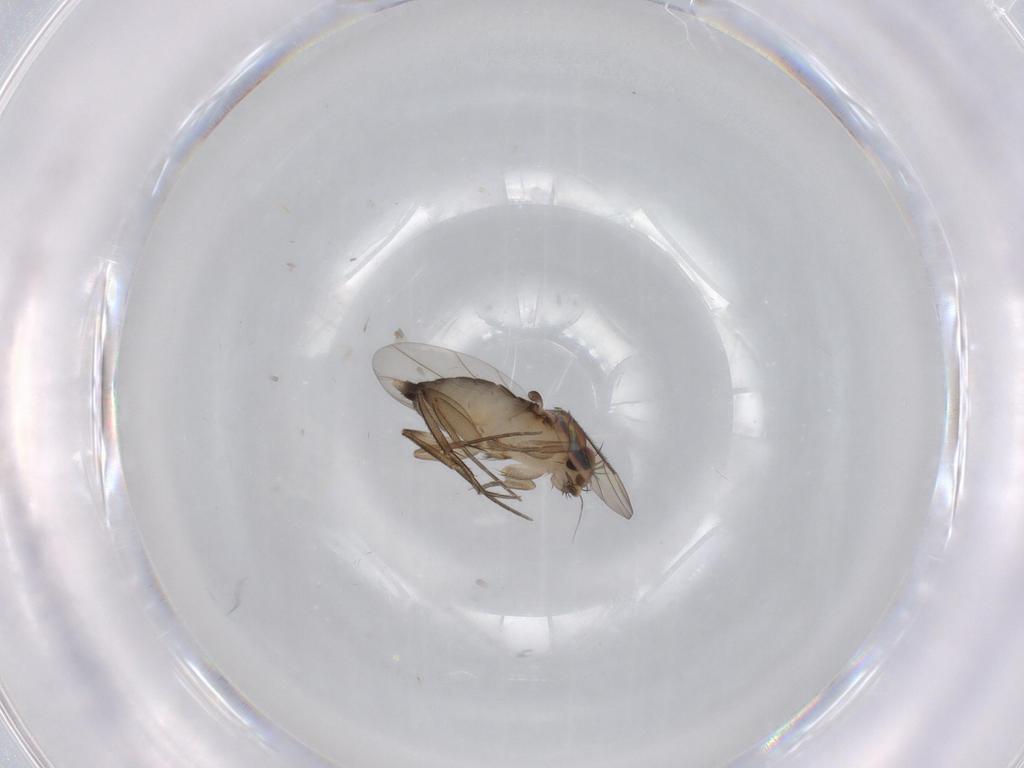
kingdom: Animalia
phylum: Arthropoda
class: Insecta
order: Diptera
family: Phoridae
